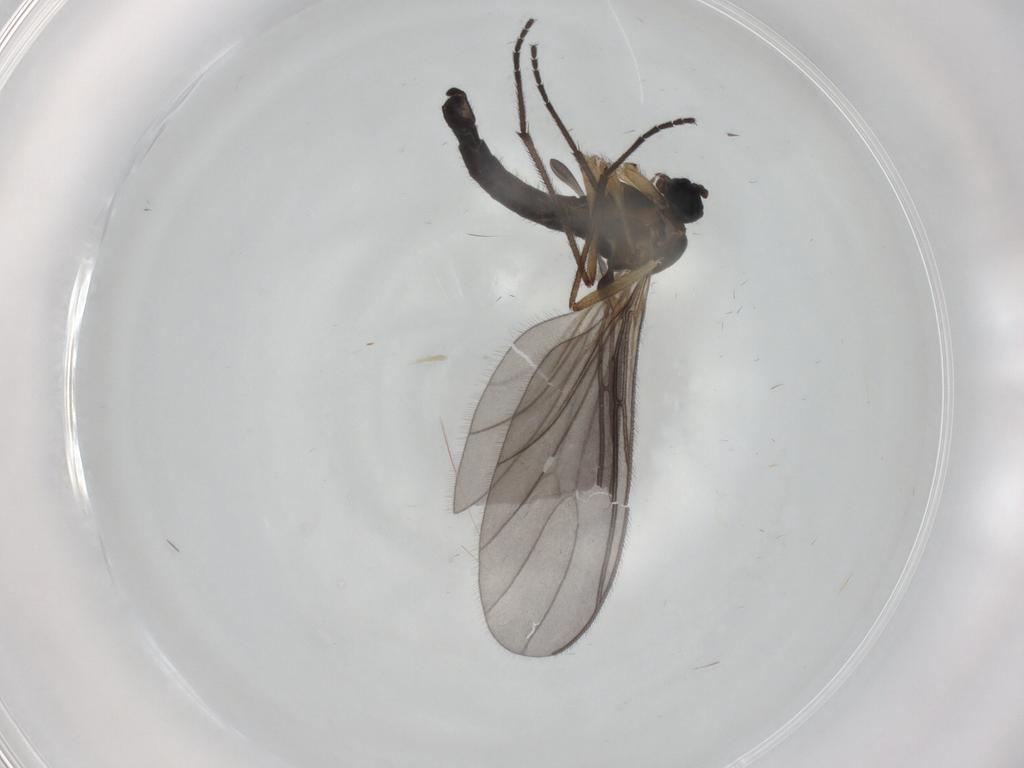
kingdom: Animalia
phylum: Arthropoda
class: Insecta
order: Diptera
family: Sciaridae
